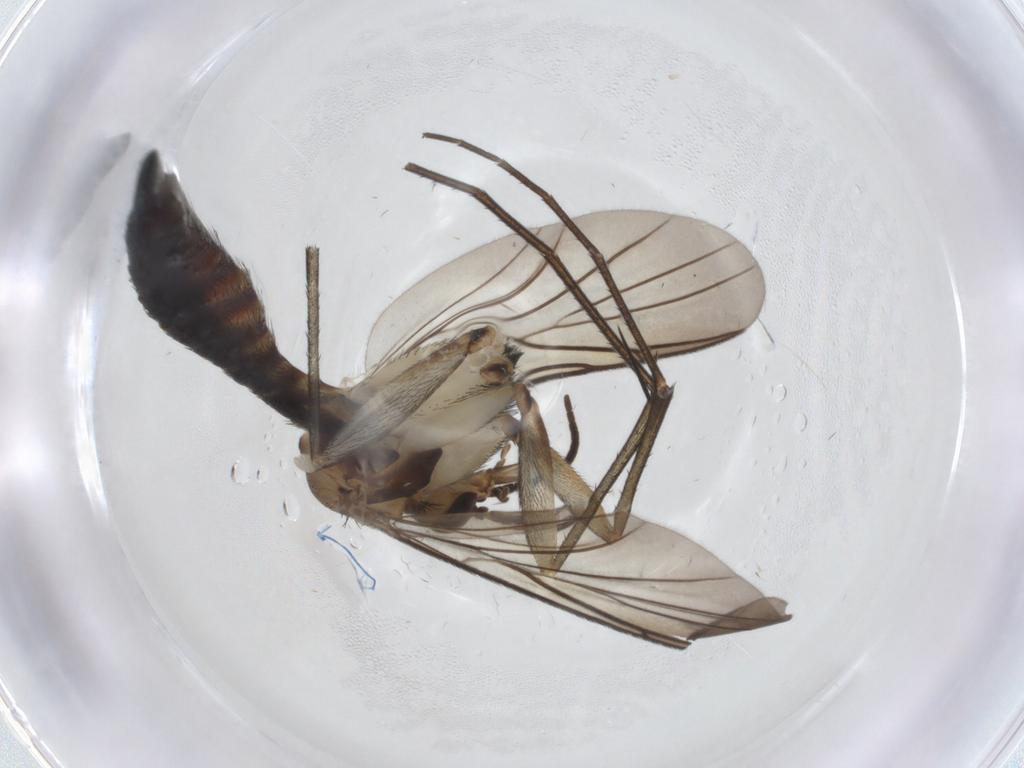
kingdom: Animalia
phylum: Arthropoda
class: Insecta
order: Diptera
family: Keroplatidae
